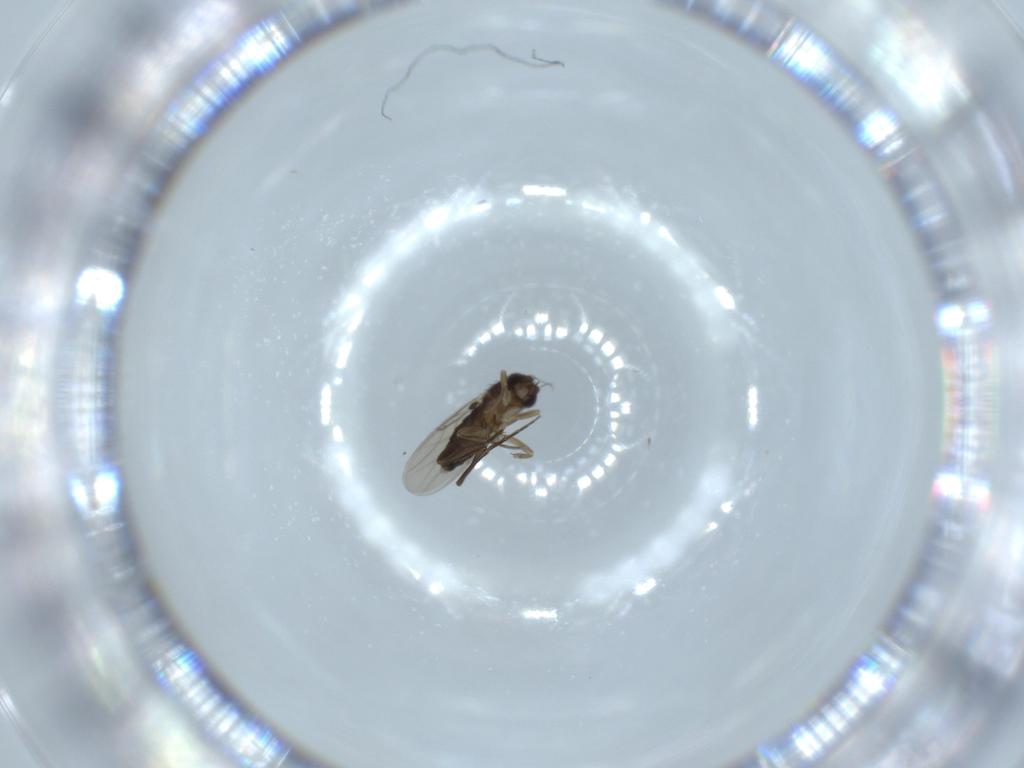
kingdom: Animalia
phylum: Arthropoda
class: Insecta
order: Diptera
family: Phoridae
